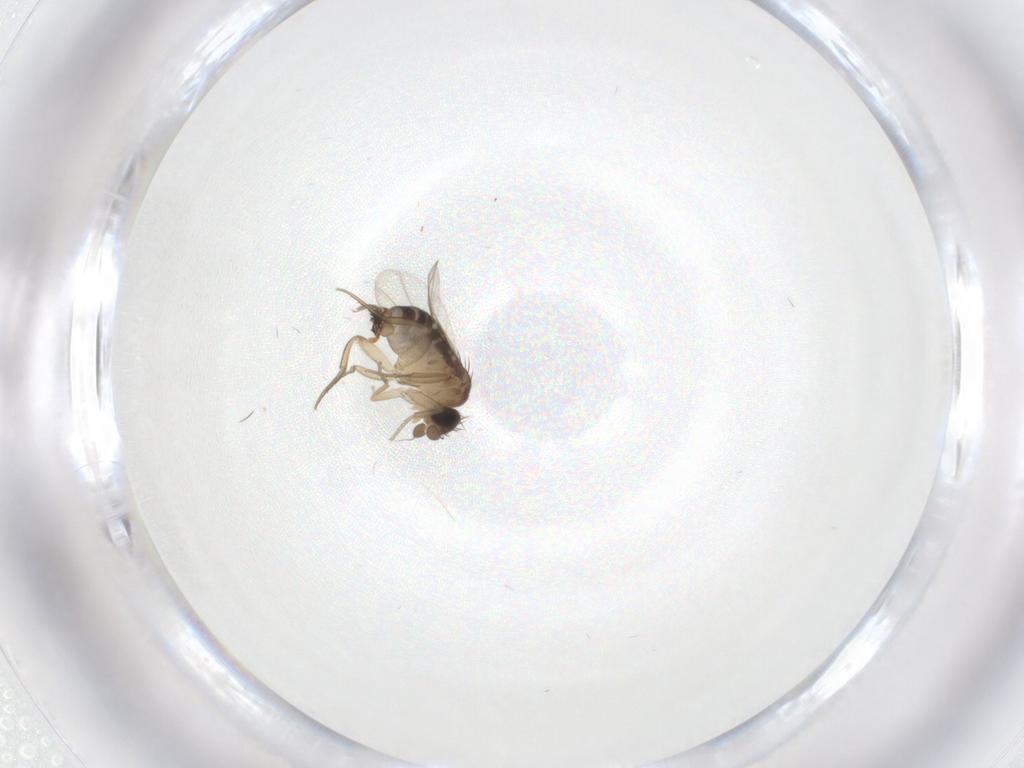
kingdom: Animalia
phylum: Arthropoda
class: Insecta
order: Diptera
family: Phoridae
